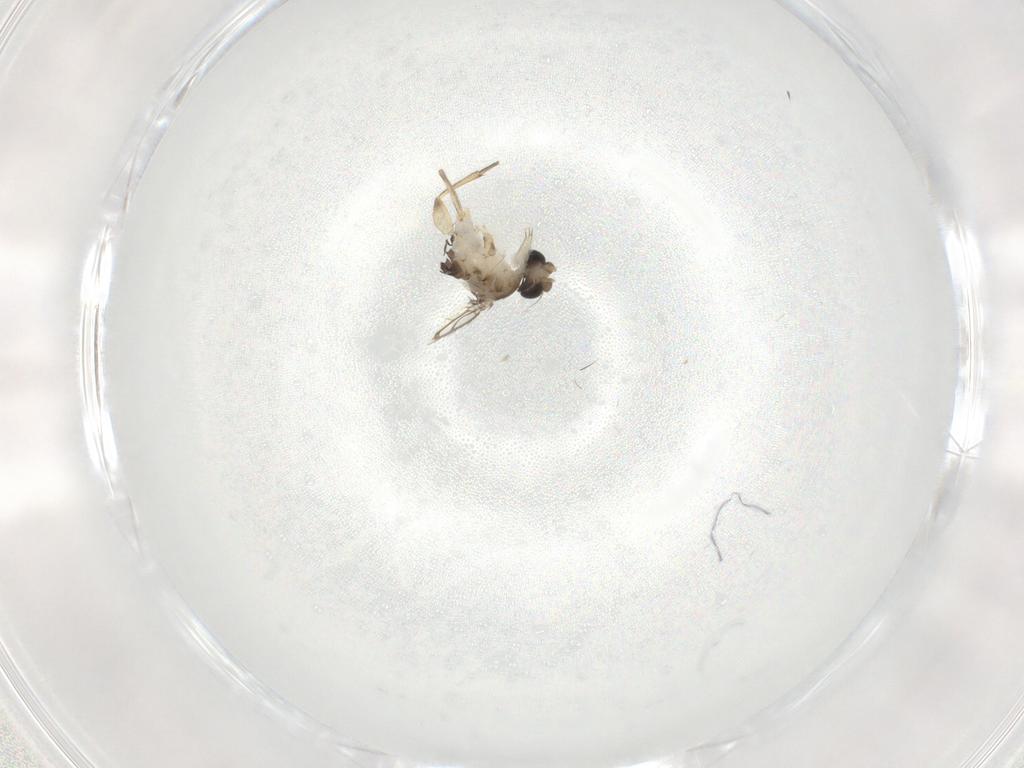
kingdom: Animalia
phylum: Arthropoda
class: Insecta
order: Diptera
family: Ceratopogonidae
